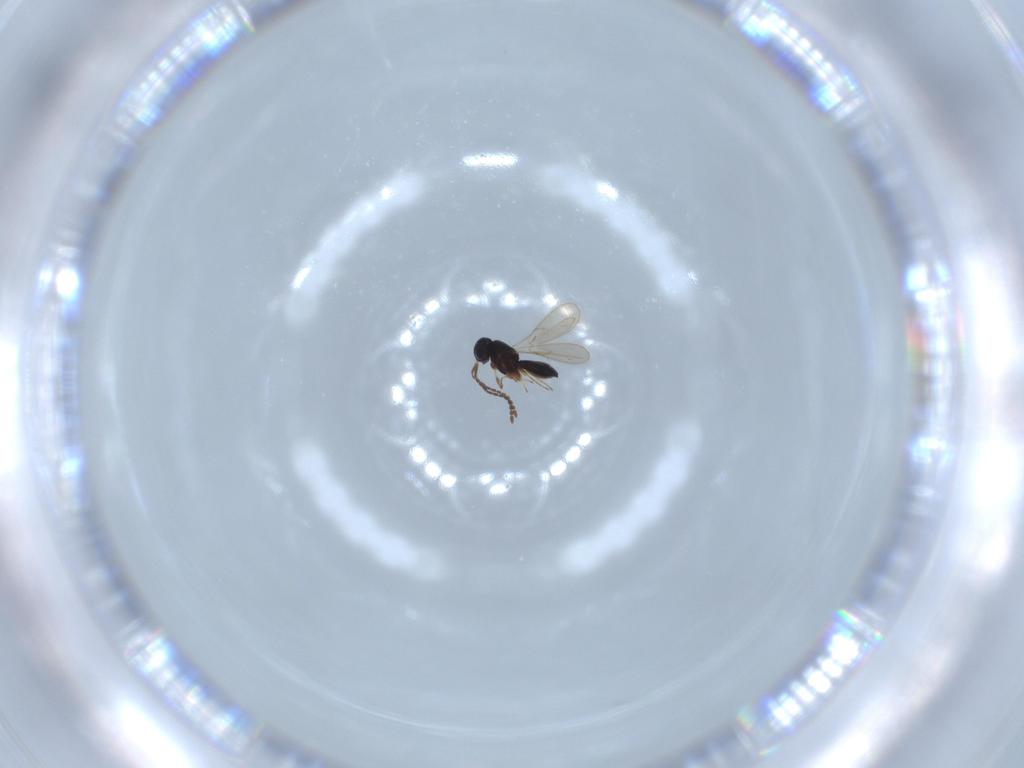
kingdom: Animalia
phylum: Arthropoda
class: Insecta
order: Hymenoptera
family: Scelionidae
